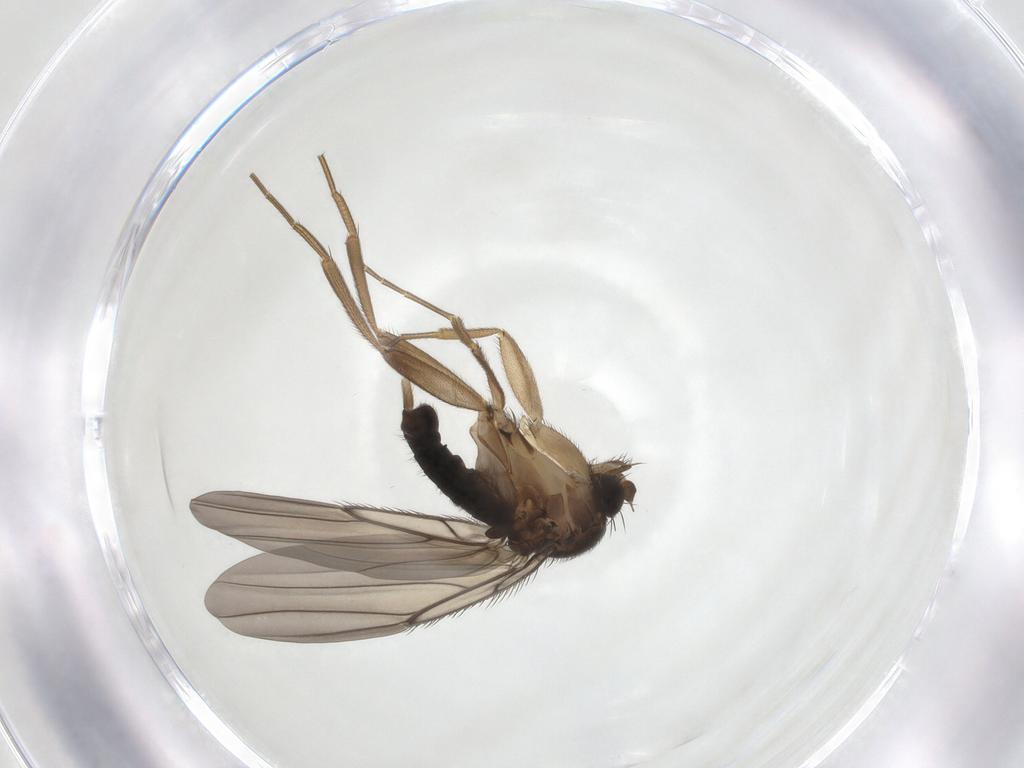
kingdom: Animalia
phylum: Arthropoda
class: Insecta
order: Diptera
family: Phoridae
